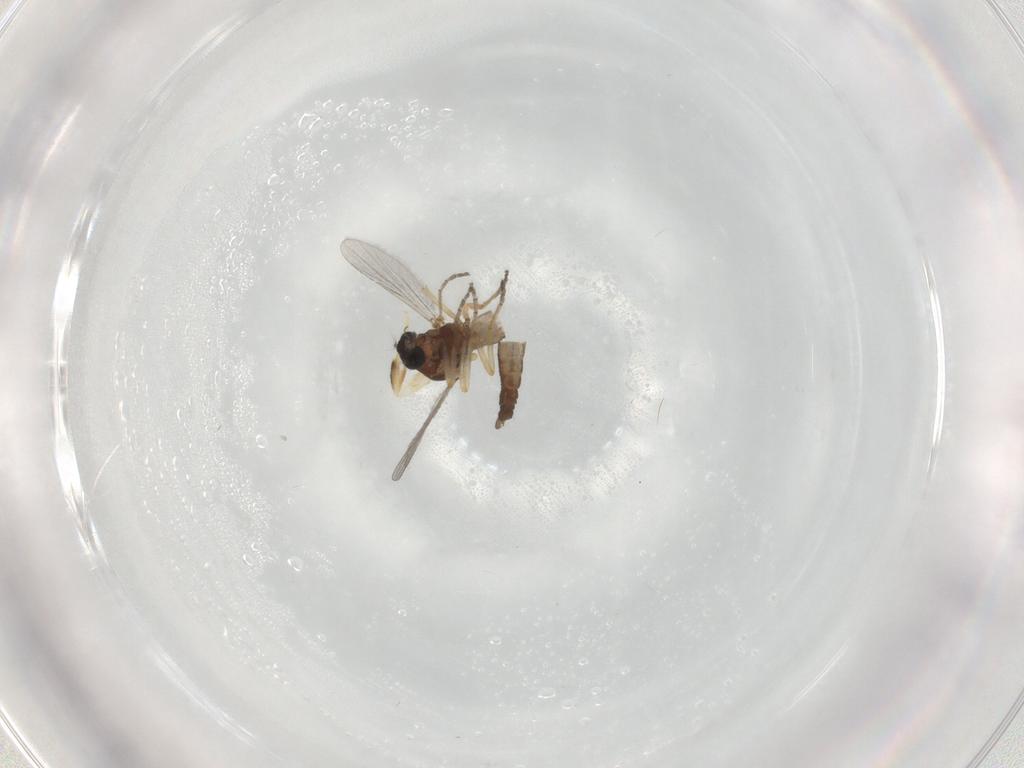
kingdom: Animalia
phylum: Arthropoda
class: Insecta
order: Diptera
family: Ceratopogonidae
